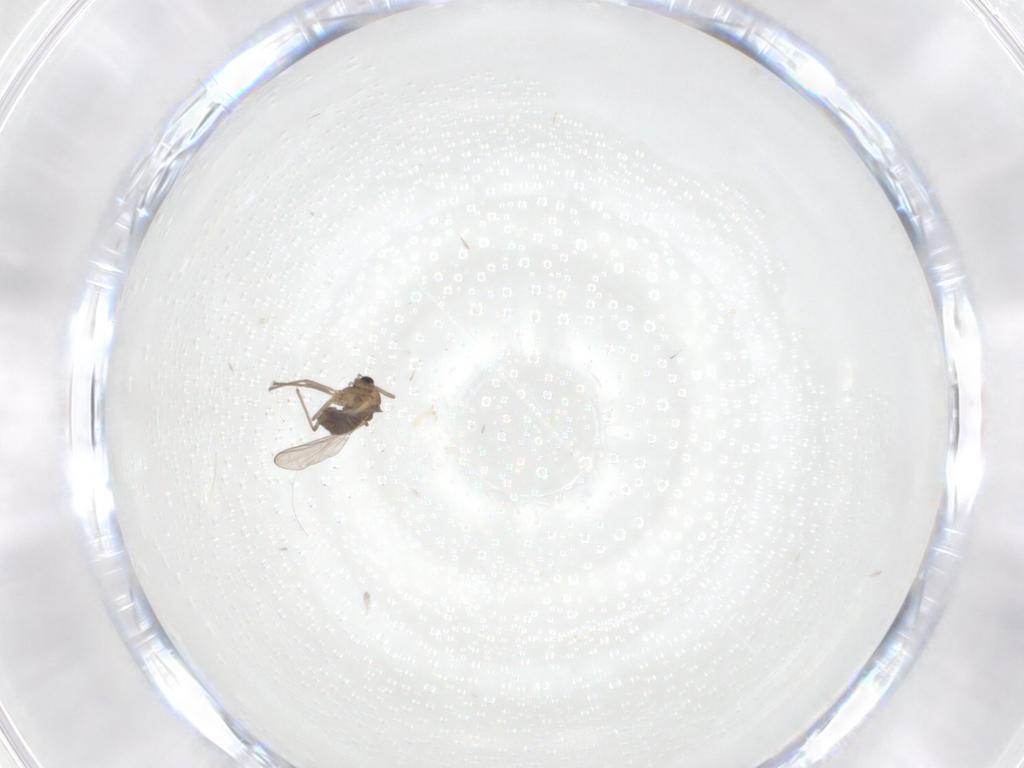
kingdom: Animalia
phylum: Arthropoda
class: Insecta
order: Diptera
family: Chironomidae
